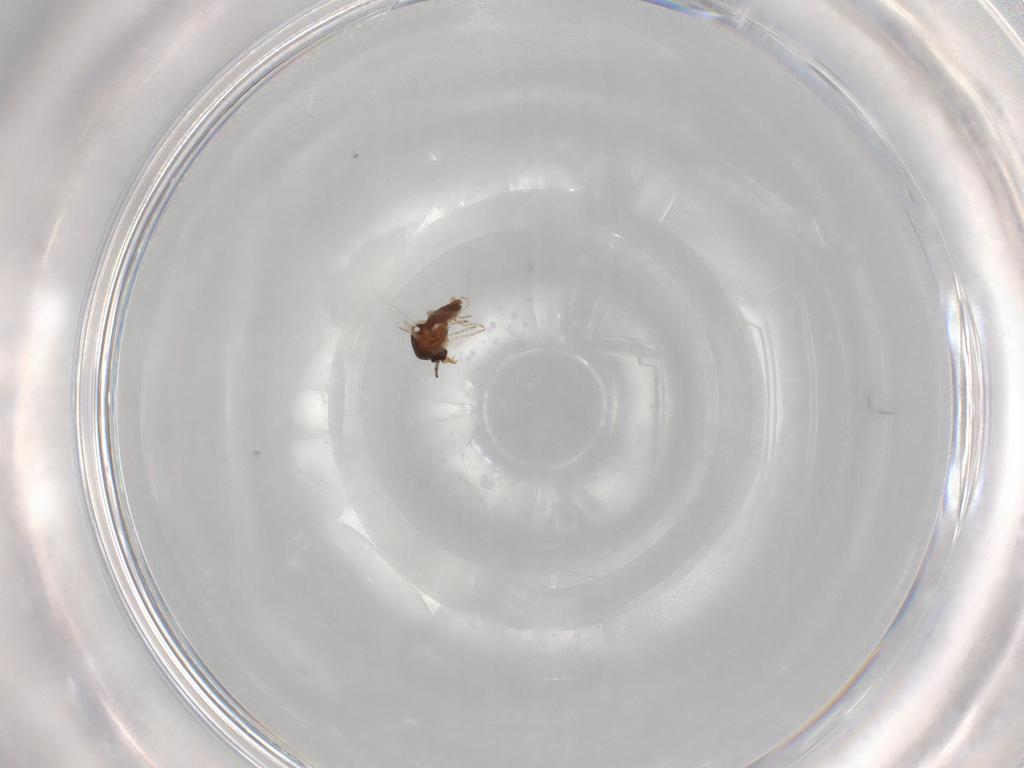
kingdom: Animalia
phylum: Arthropoda
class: Insecta
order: Diptera
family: Ceratopogonidae
